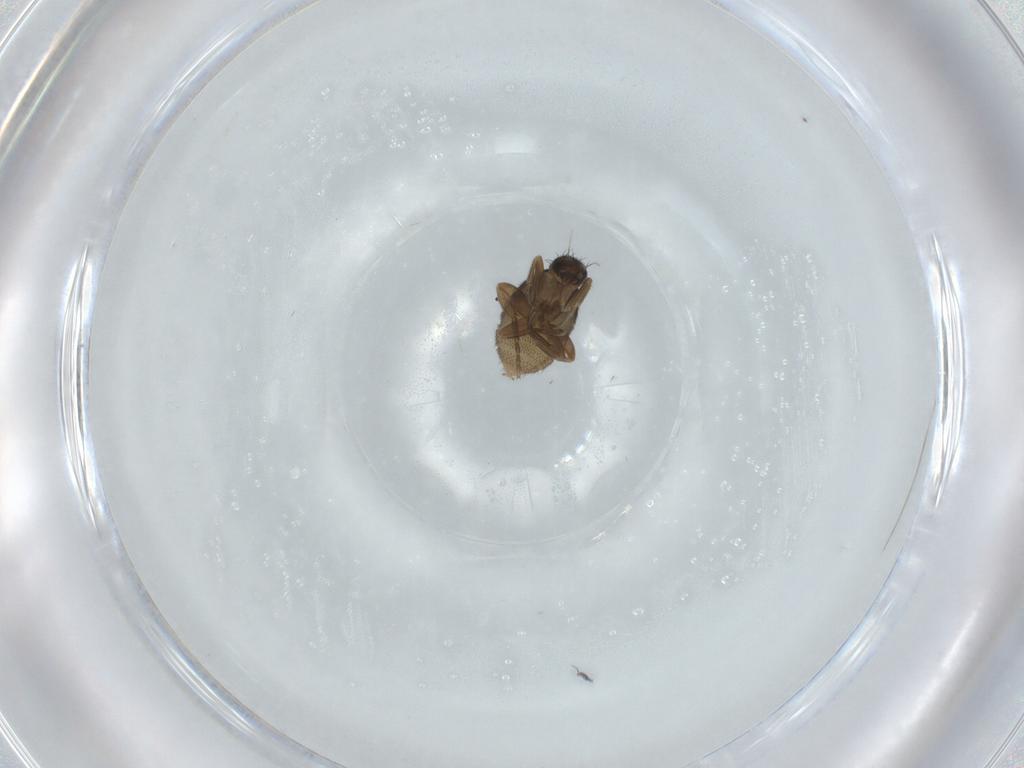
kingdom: Animalia
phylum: Arthropoda
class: Insecta
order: Diptera
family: Phoridae
